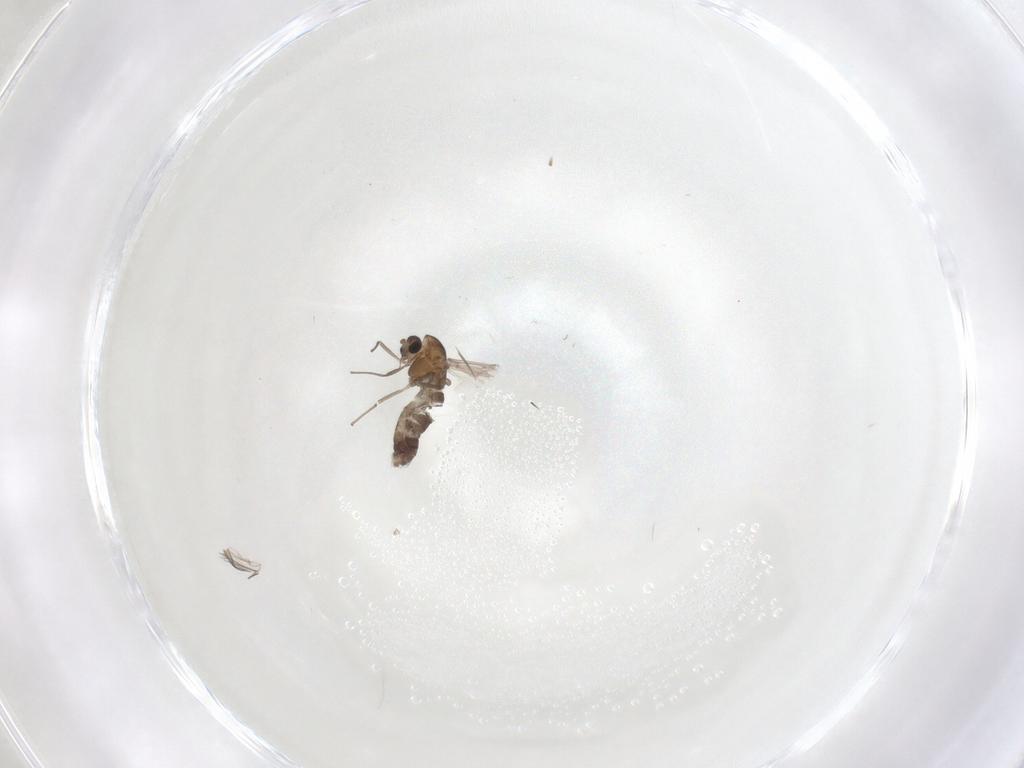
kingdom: Animalia
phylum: Arthropoda
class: Insecta
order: Diptera
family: Chironomidae
